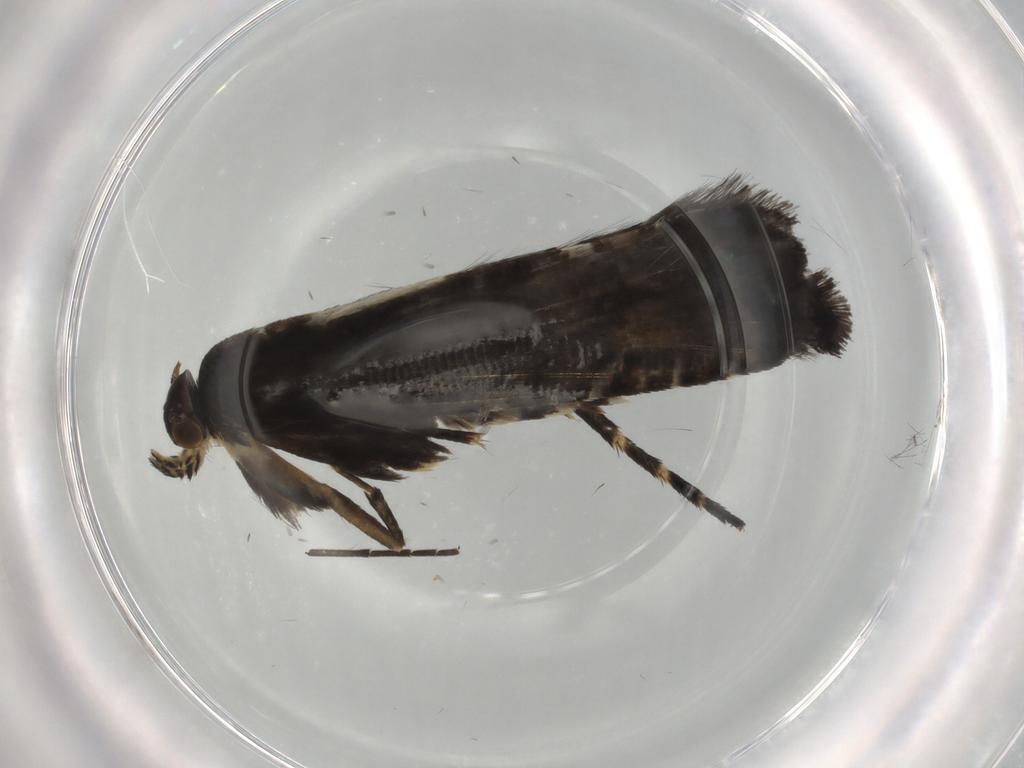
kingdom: Animalia
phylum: Arthropoda
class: Insecta
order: Lepidoptera
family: Glyphipterigidae
